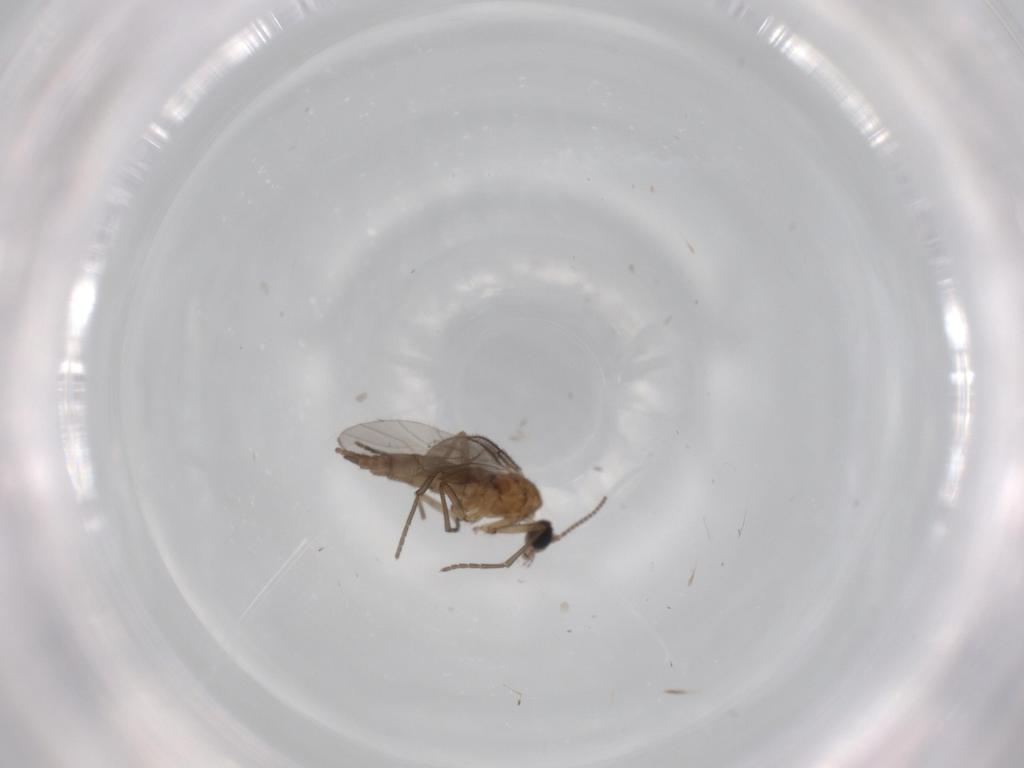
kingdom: Animalia
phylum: Arthropoda
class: Insecta
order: Diptera
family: Sciaridae
